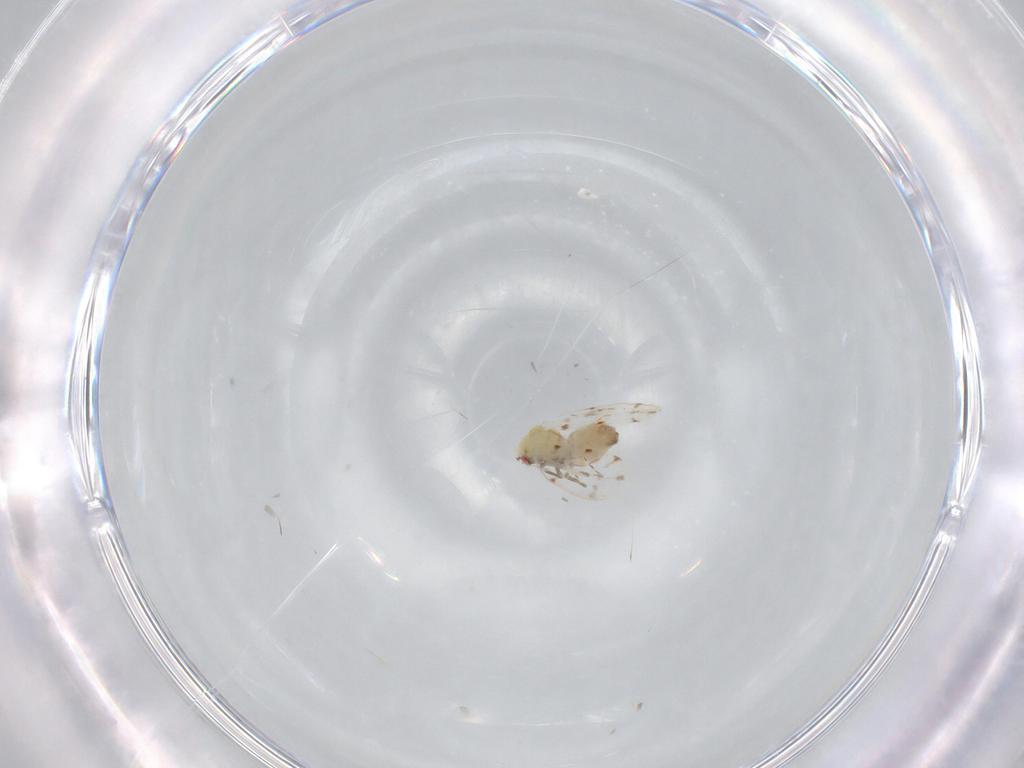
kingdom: Animalia
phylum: Arthropoda
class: Insecta
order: Hemiptera
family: Aleyrodidae
